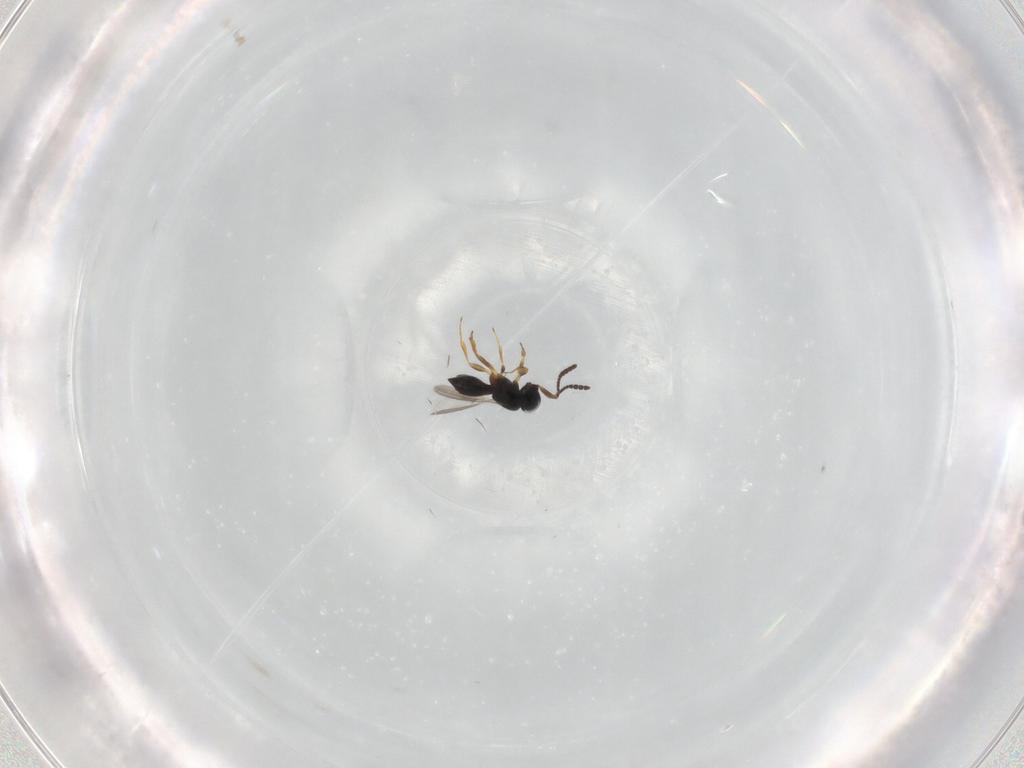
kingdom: Animalia
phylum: Arthropoda
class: Insecta
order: Hymenoptera
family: Scelionidae
